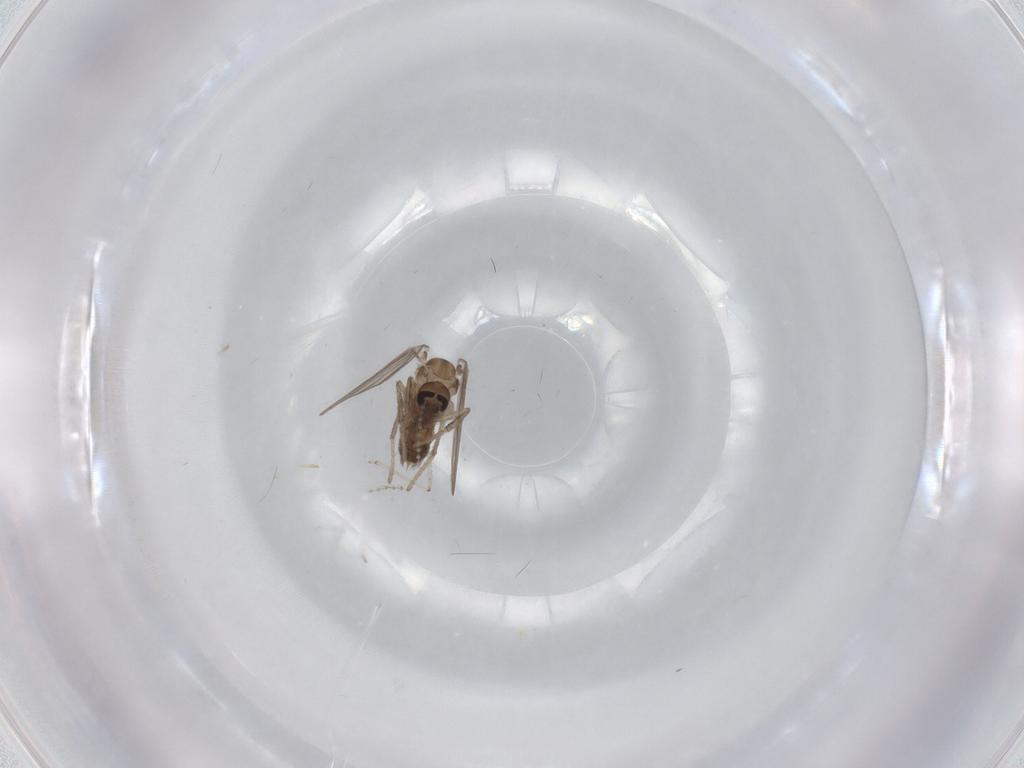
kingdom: Animalia
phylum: Arthropoda
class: Insecta
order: Diptera
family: Psychodidae
